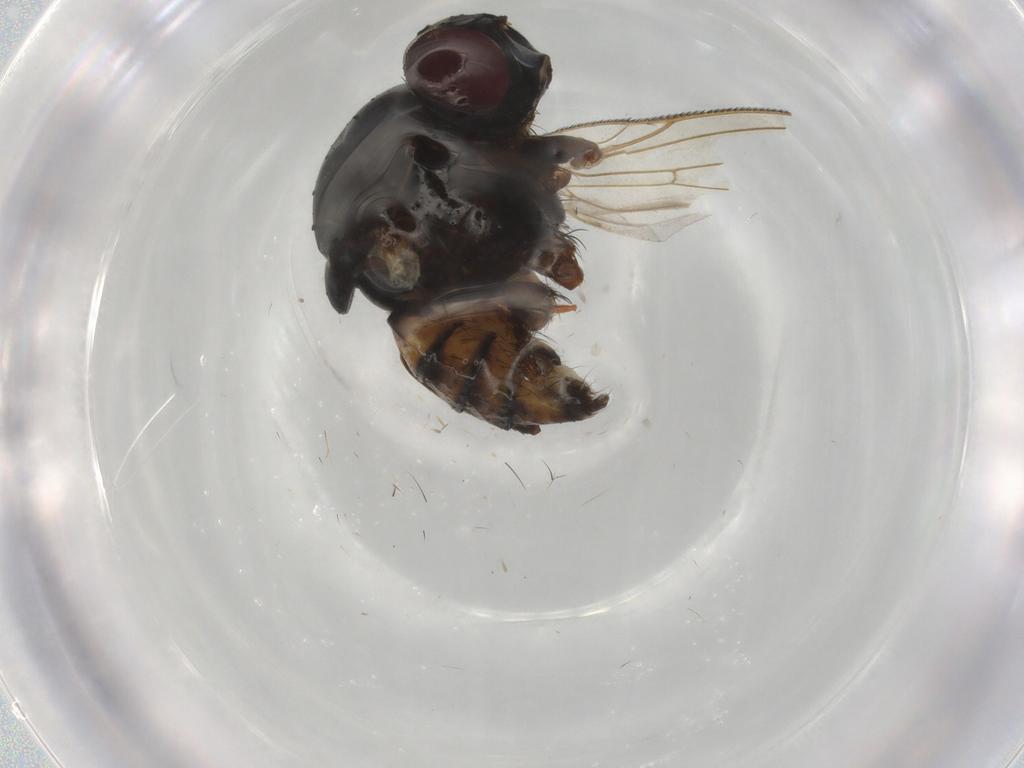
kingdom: Animalia
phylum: Arthropoda
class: Insecta
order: Diptera
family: Anthomyiidae
